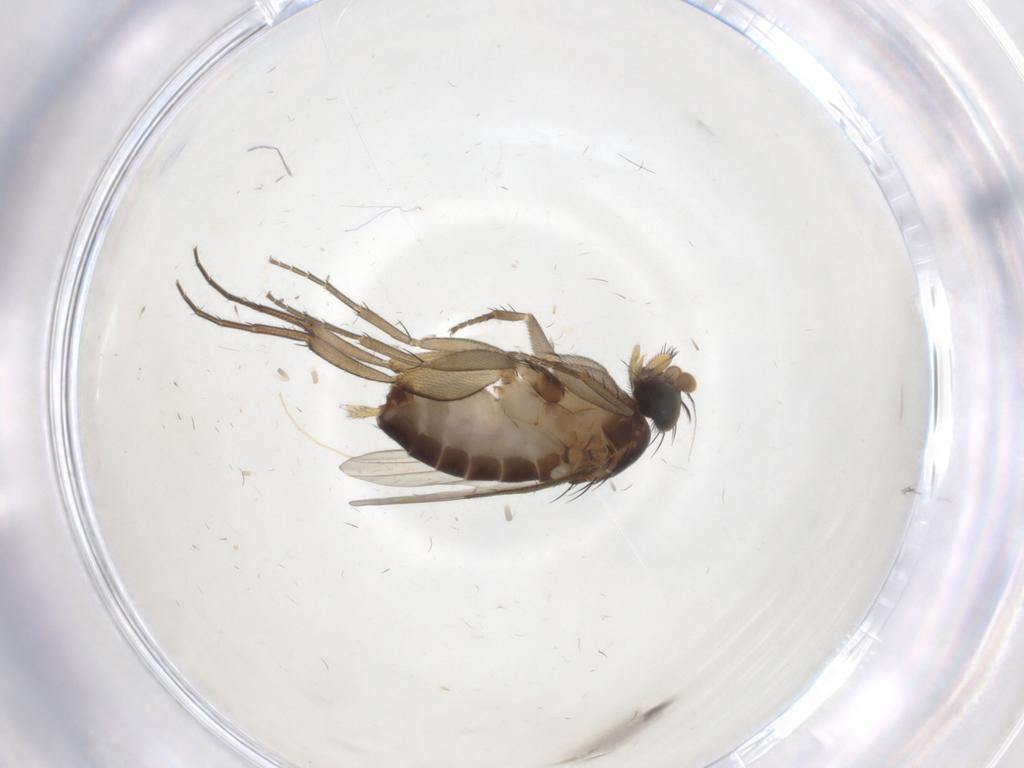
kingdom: Animalia
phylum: Arthropoda
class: Insecta
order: Diptera
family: Phoridae
